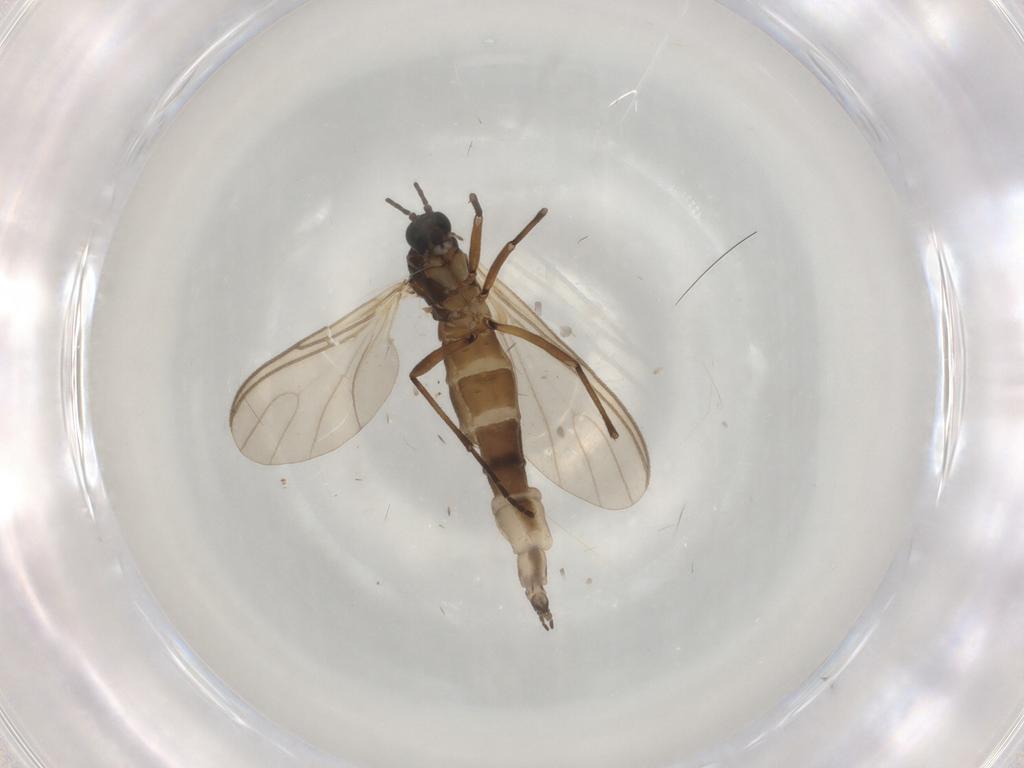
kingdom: Animalia
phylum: Arthropoda
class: Insecta
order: Diptera
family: Sciaridae
